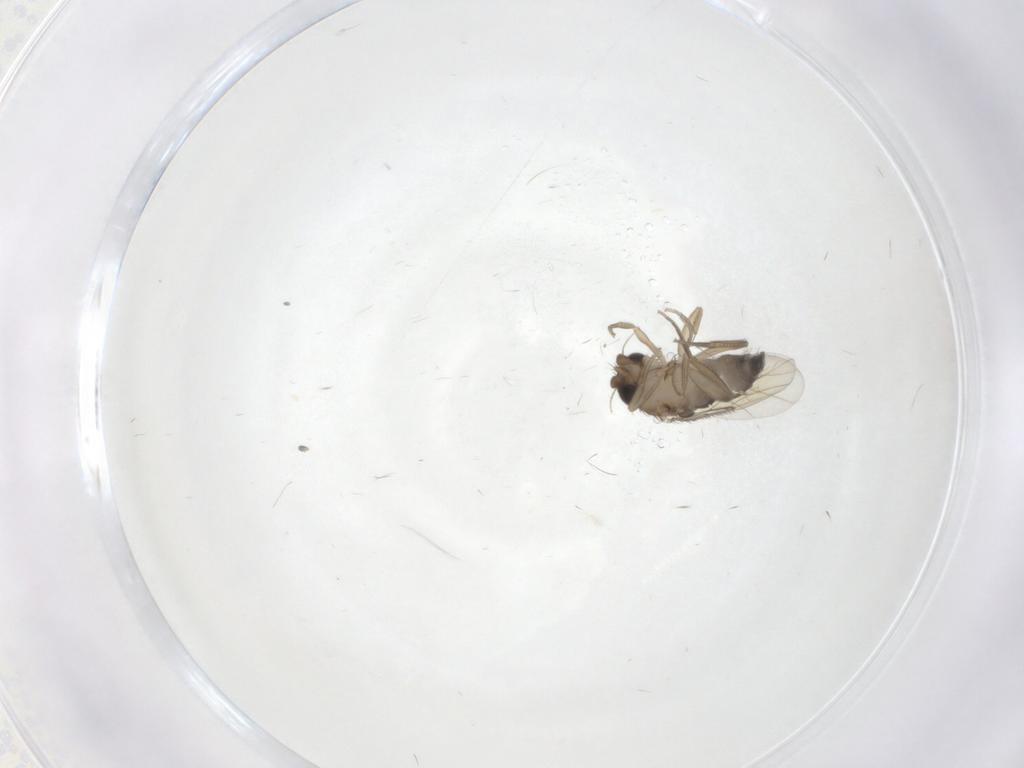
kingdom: Animalia
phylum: Arthropoda
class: Insecta
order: Diptera
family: Phoridae
